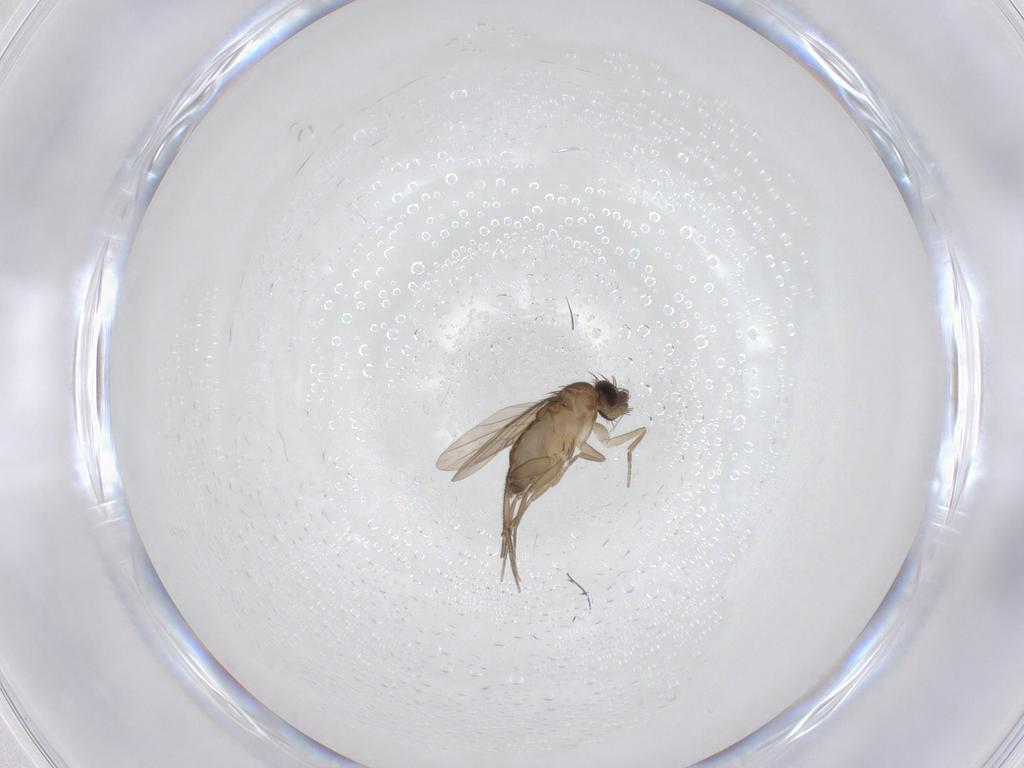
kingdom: Animalia
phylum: Arthropoda
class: Insecta
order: Diptera
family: Phoridae
